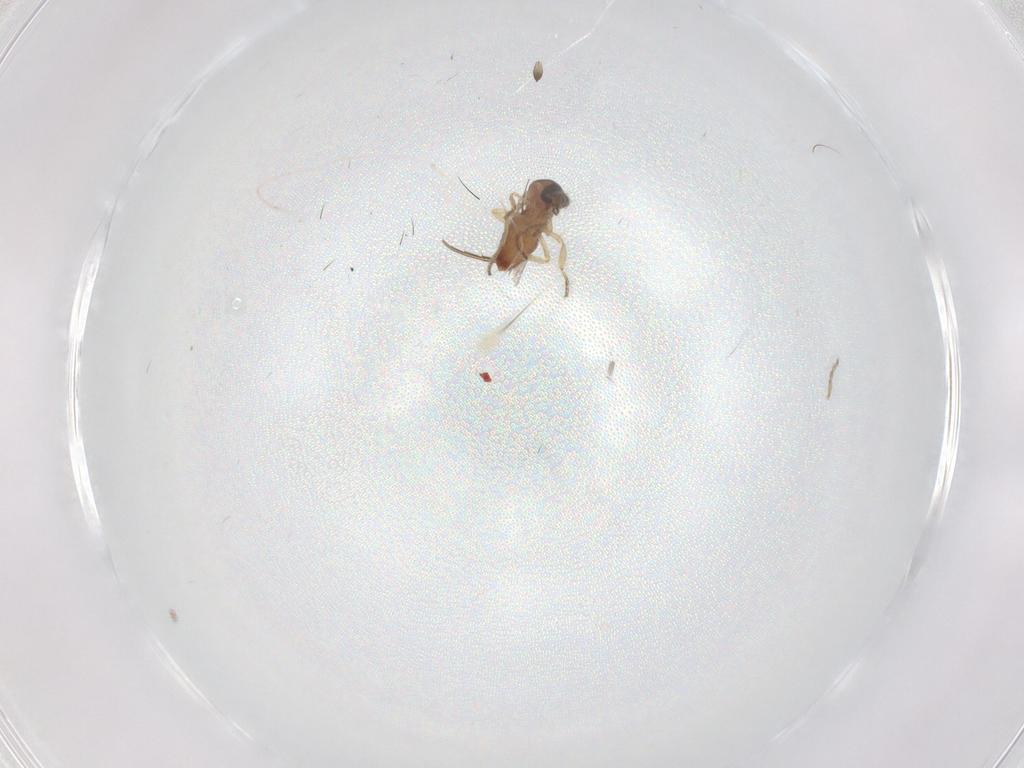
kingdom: Animalia
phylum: Arthropoda
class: Insecta
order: Diptera
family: Ceratopogonidae
